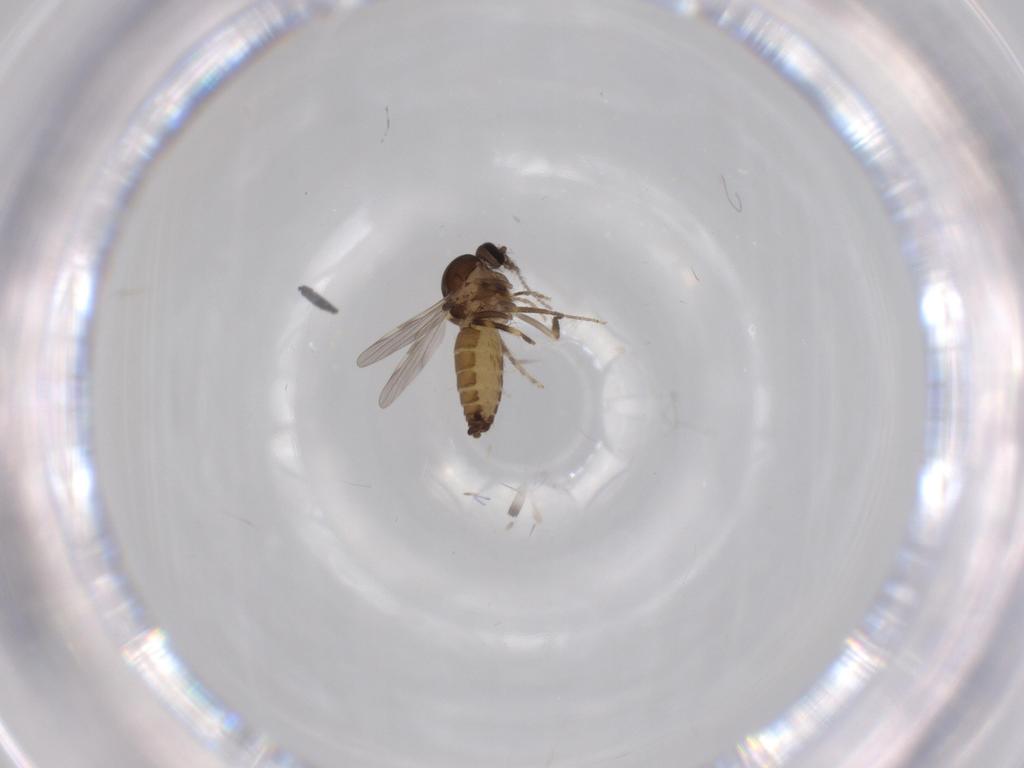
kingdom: Animalia
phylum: Arthropoda
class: Insecta
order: Diptera
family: Ceratopogonidae
